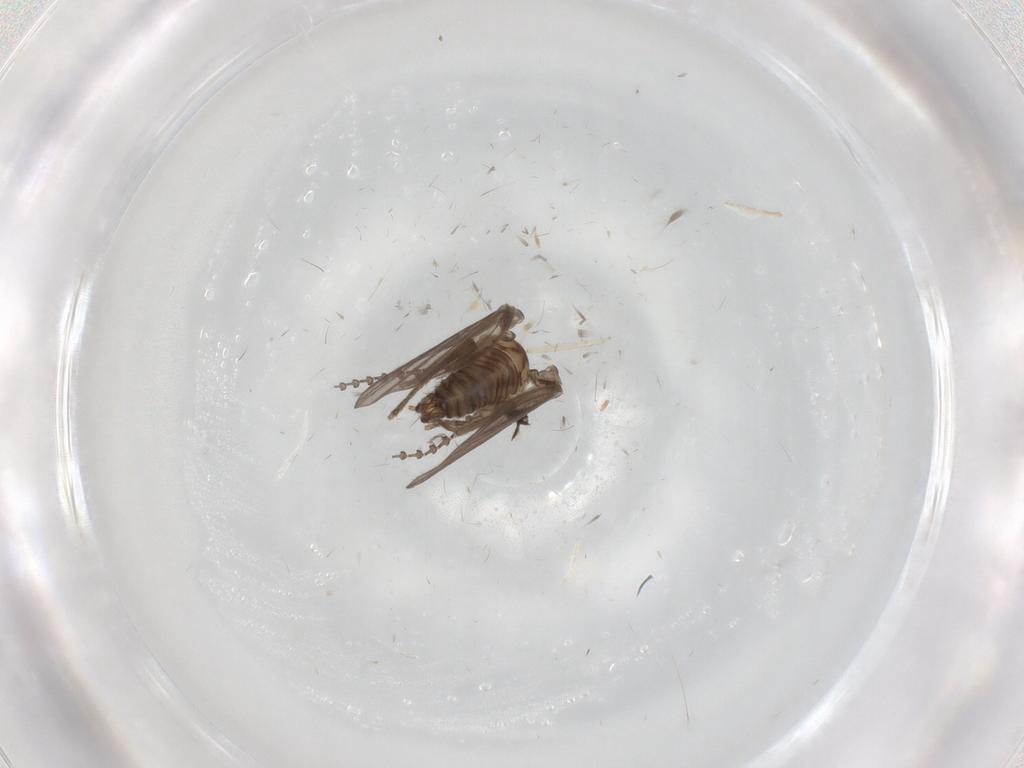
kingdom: Animalia
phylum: Arthropoda
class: Insecta
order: Diptera
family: Psychodidae
